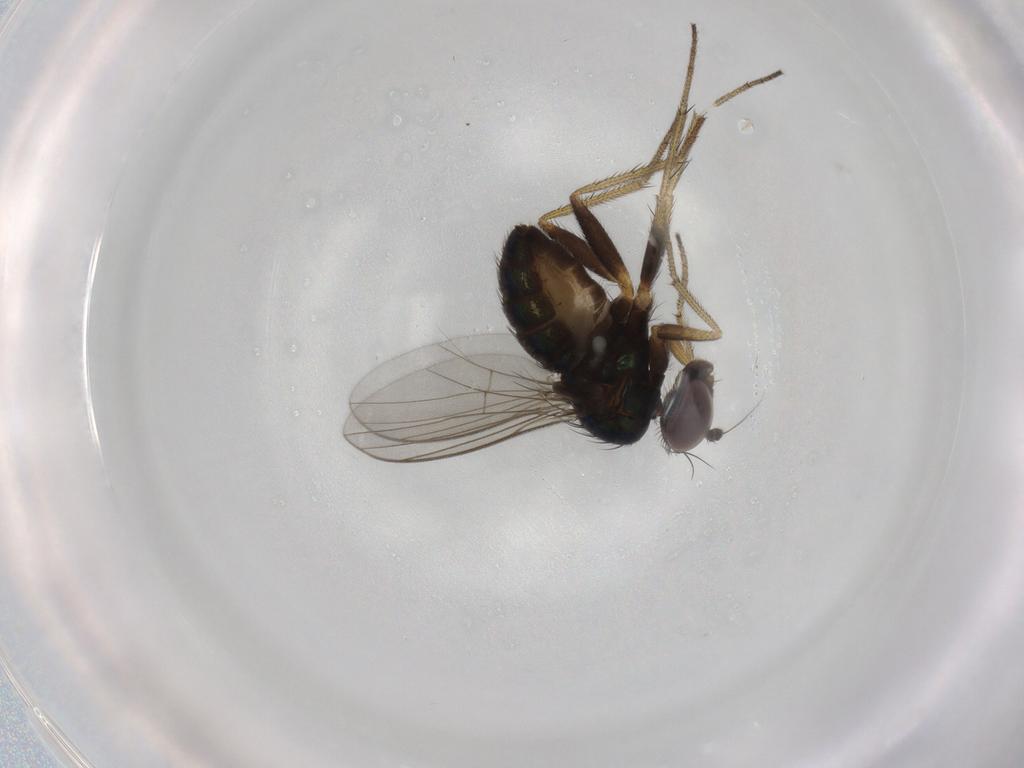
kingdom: Animalia
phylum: Arthropoda
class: Insecta
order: Diptera
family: Dolichopodidae
